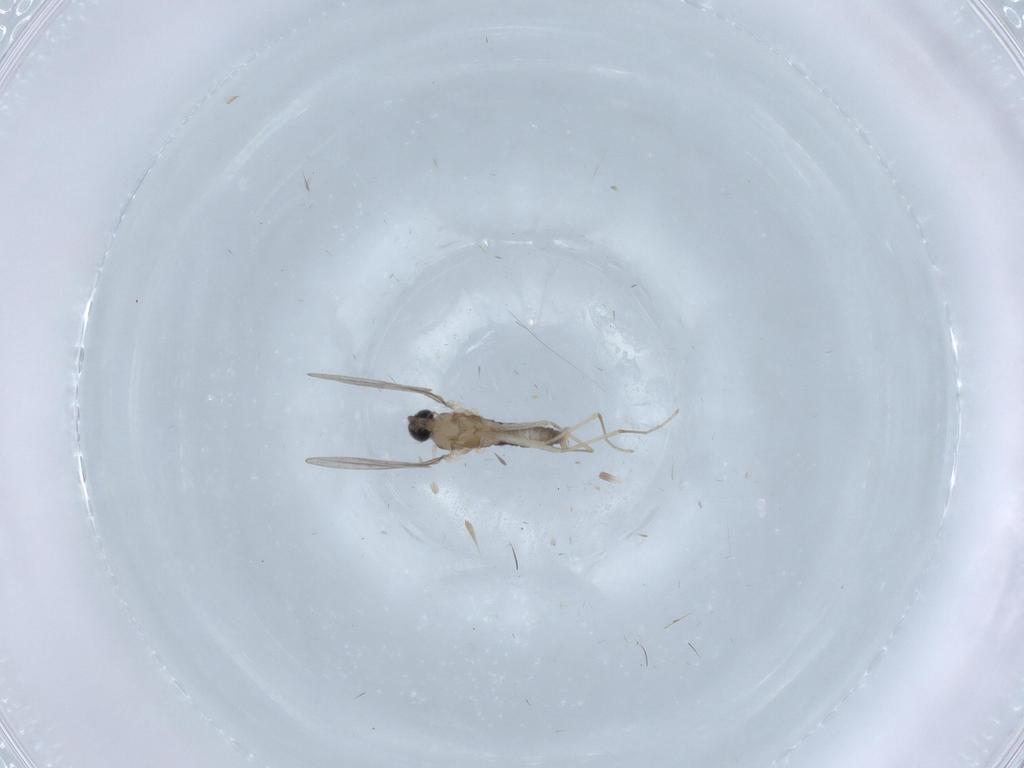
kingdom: Animalia
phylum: Arthropoda
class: Insecta
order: Diptera
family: Cecidomyiidae
